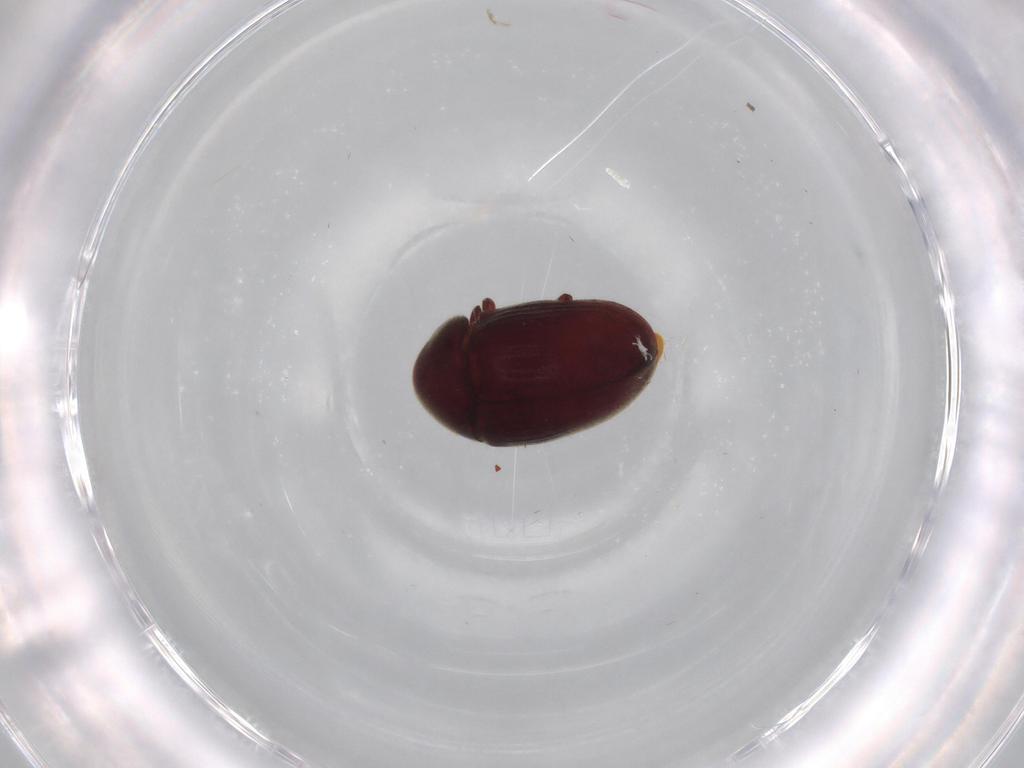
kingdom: Animalia
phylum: Arthropoda
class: Insecta
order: Coleoptera
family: Ptinidae
